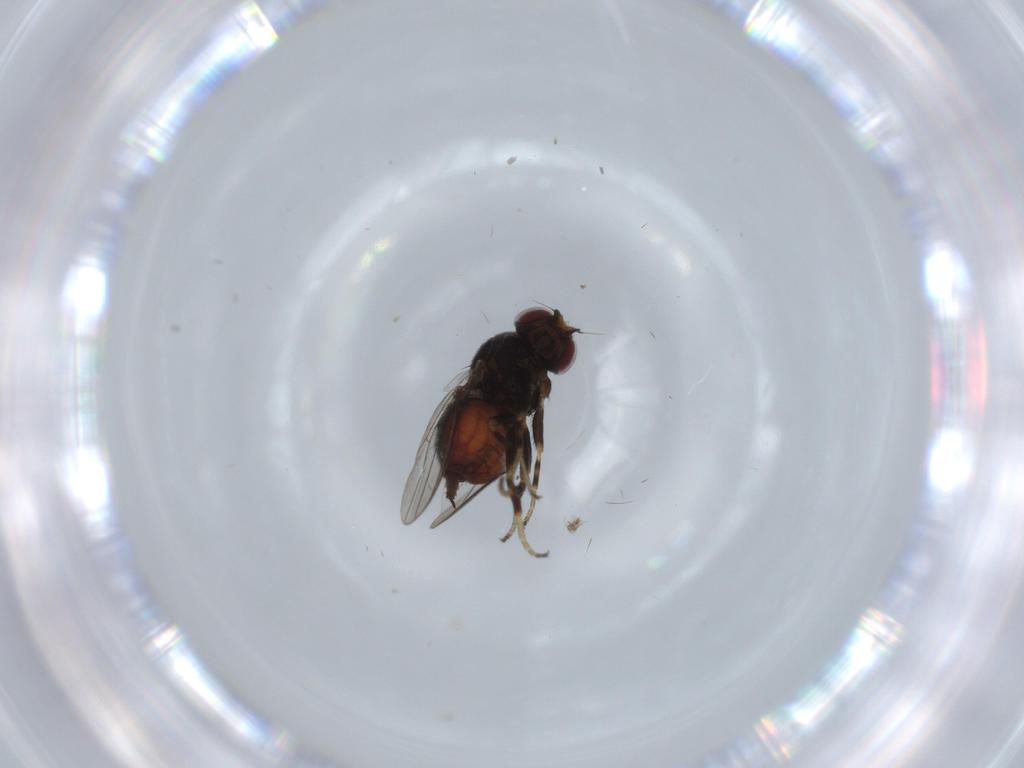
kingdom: Animalia
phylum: Arthropoda
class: Insecta
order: Diptera
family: Chloropidae
